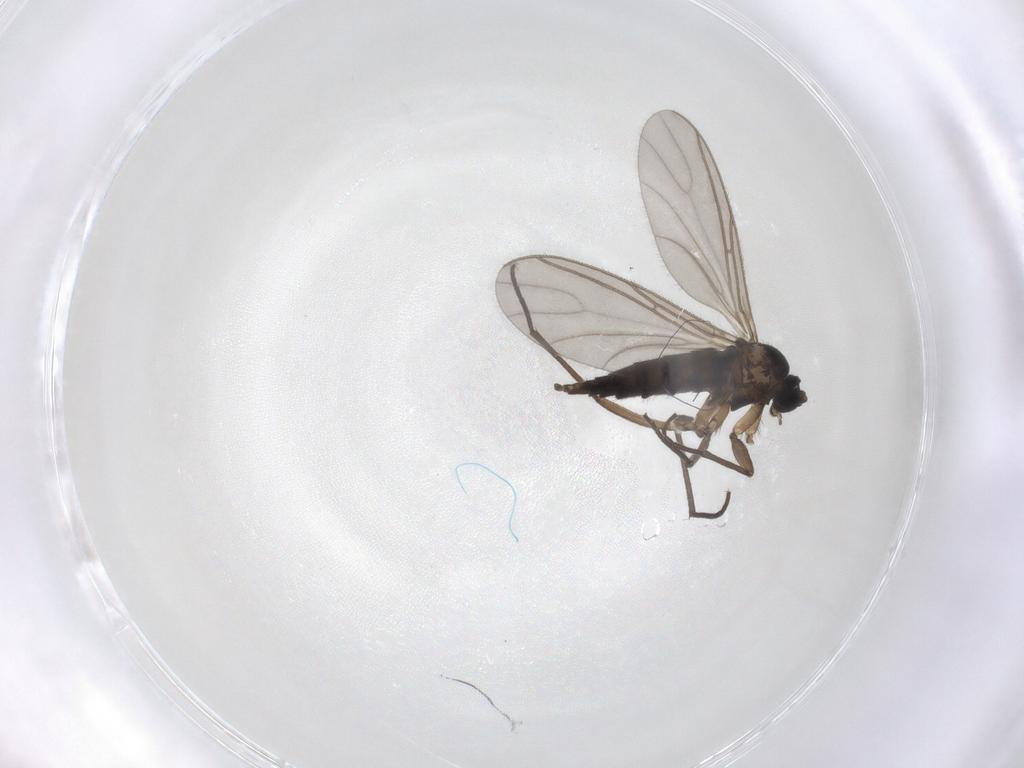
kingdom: Animalia
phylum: Arthropoda
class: Insecta
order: Diptera
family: Sciaridae
